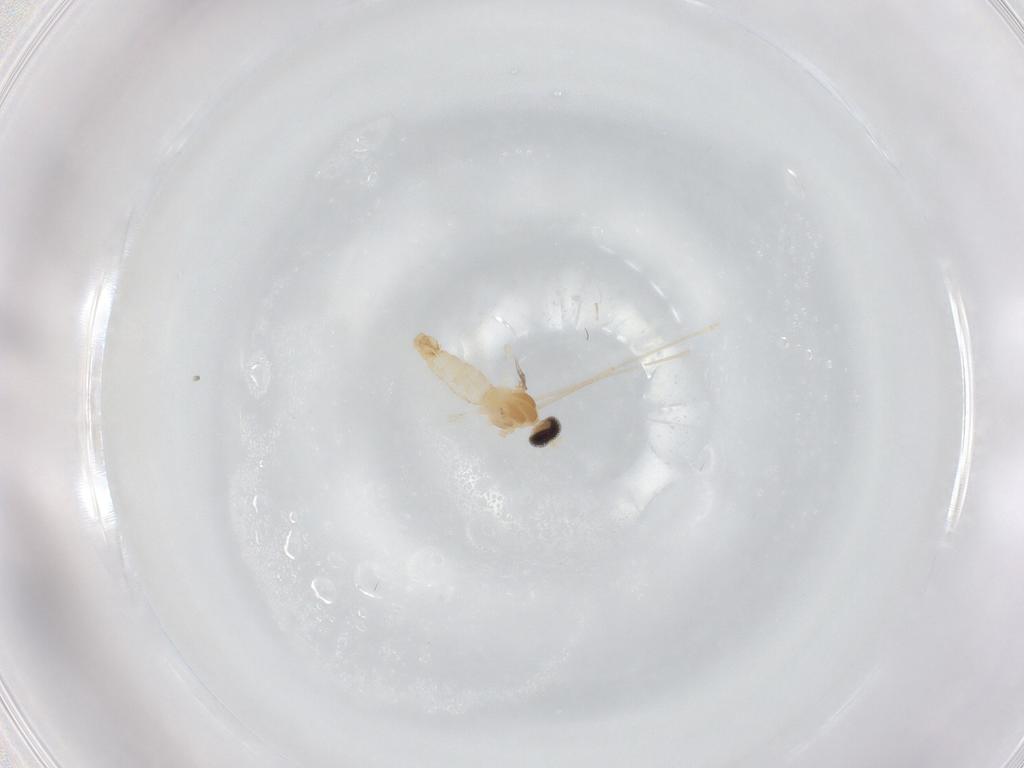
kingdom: Animalia
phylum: Arthropoda
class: Insecta
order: Diptera
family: Cecidomyiidae
